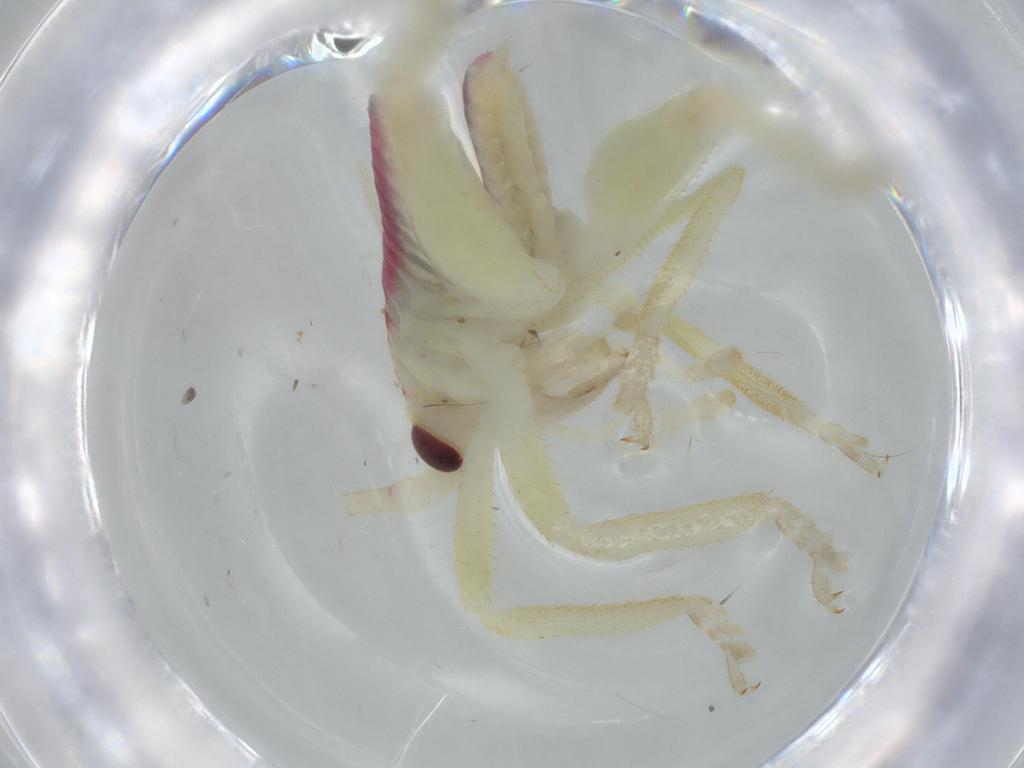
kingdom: Animalia
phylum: Arthropoda
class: Insecta
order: Orthoptera
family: Gryllacrididae
